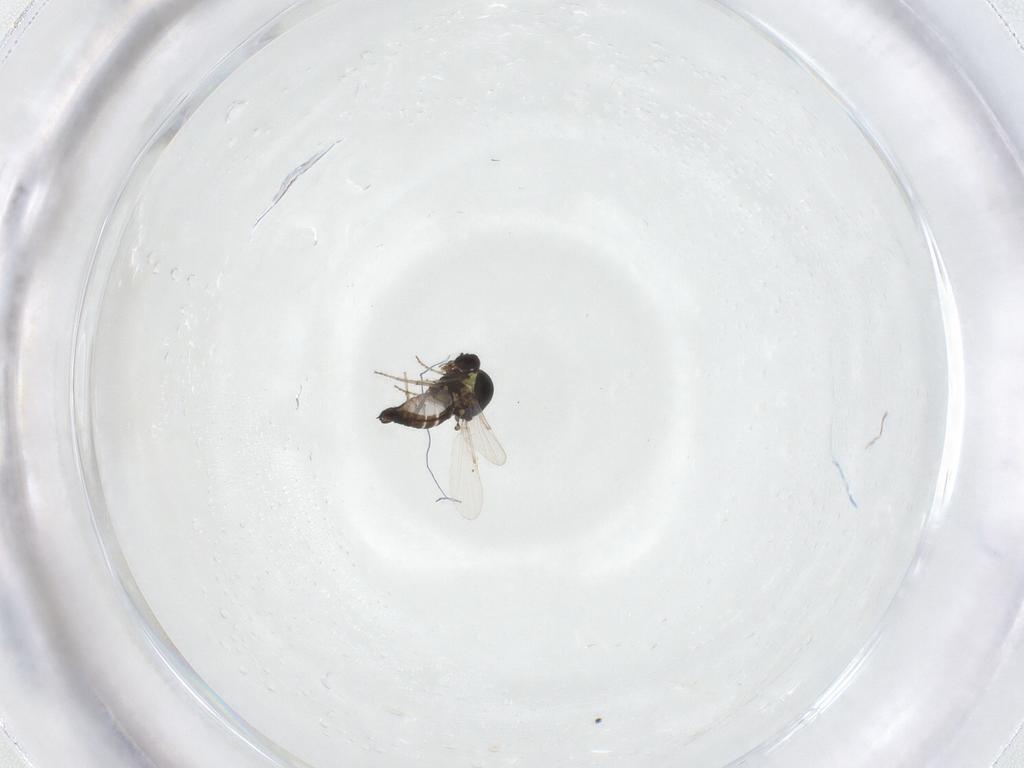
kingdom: Animalia
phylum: Arthropoda
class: Insecta
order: Diptera
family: Ceratopogonidae
